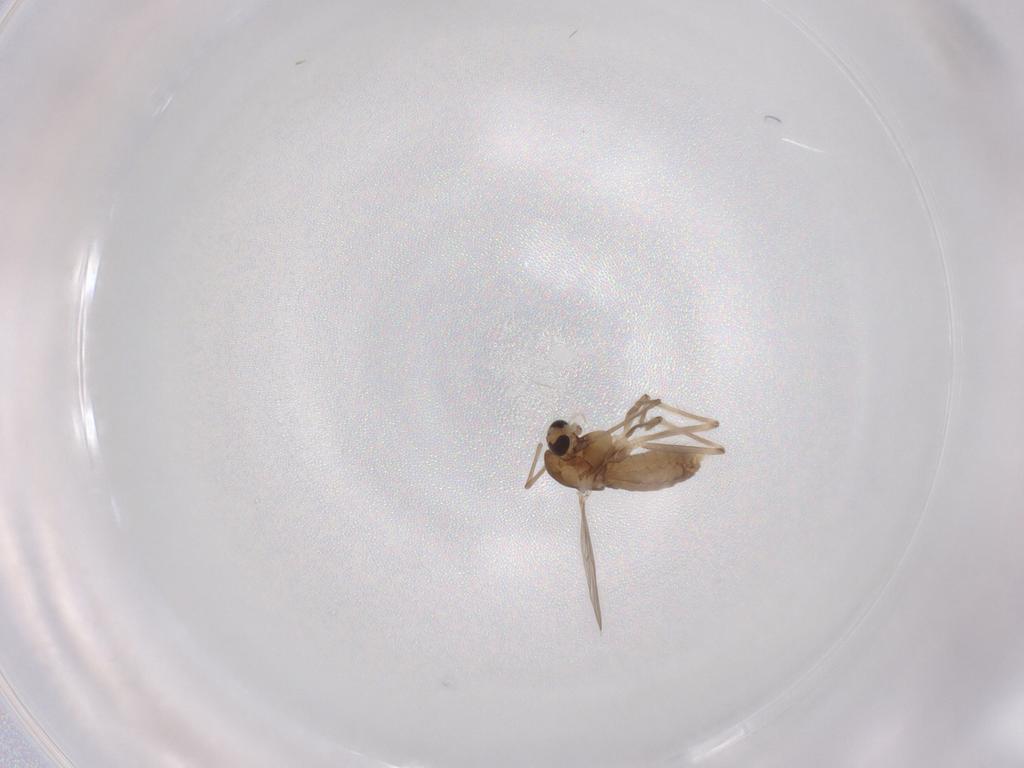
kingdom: Animalia
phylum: Arthropoda
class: Insecta
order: Diptera
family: Chironomidae
